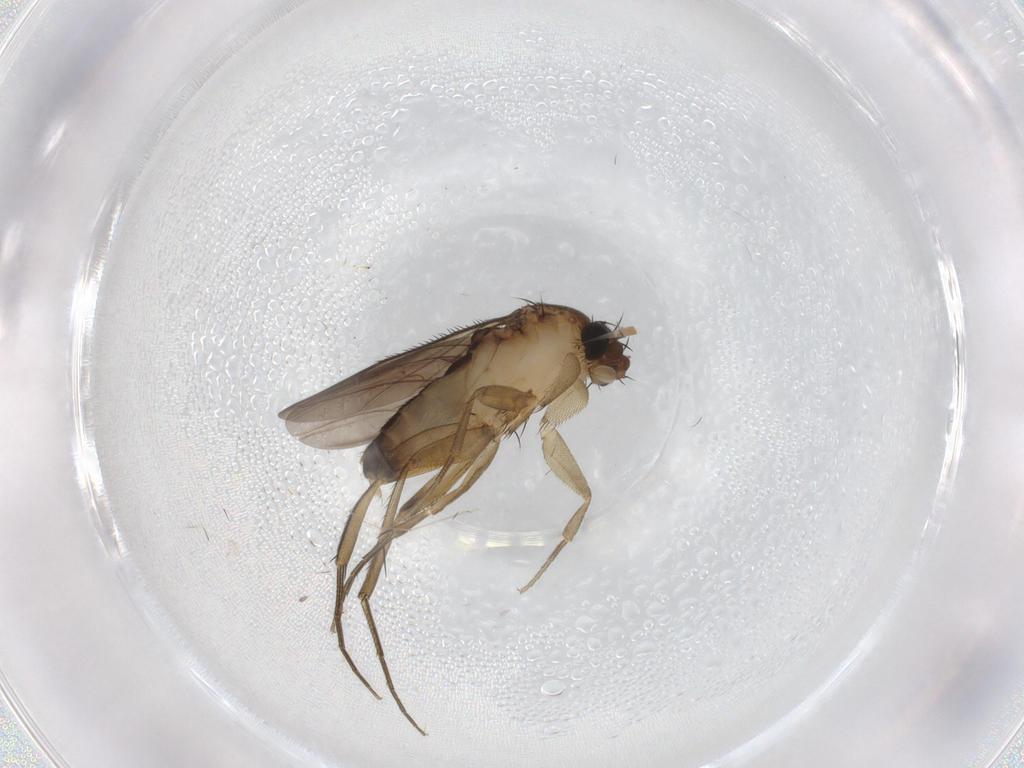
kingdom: Animalia
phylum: Arthropoda
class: Insecta
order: Diptera
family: Phoridae
